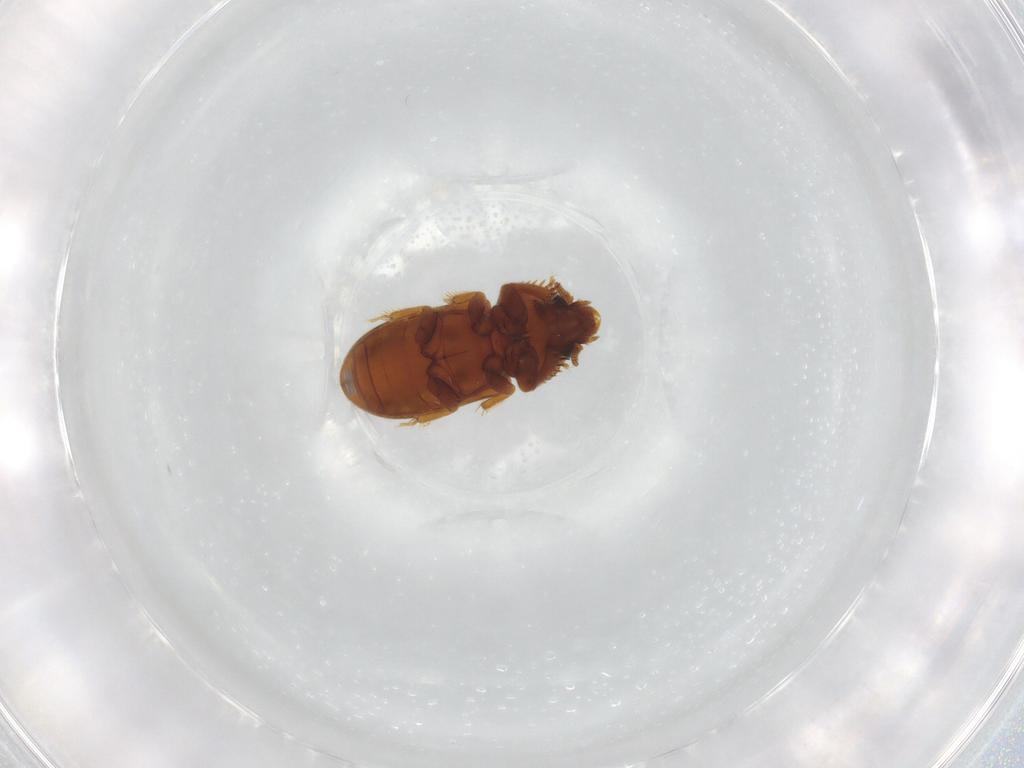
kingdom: Animalia
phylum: Arthropoda
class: Insecta
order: Coleoptera
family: Heteroceridae
